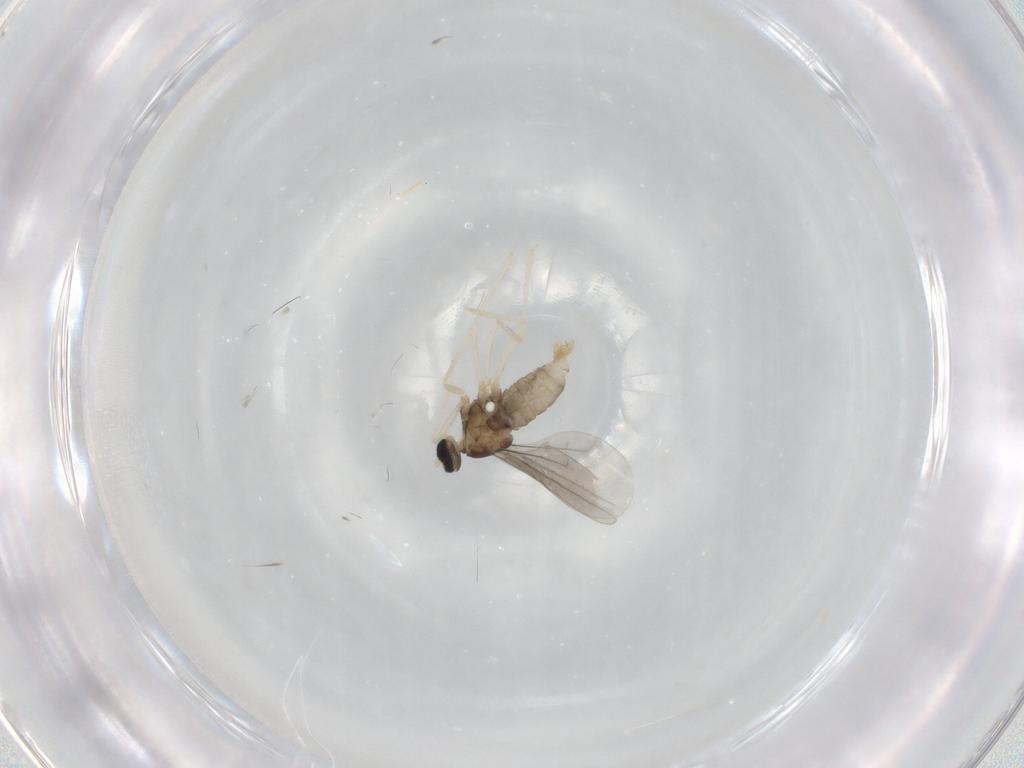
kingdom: Animalia
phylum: Arthropoda
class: Insecta
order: Diptera
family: Cecidomyiidae
